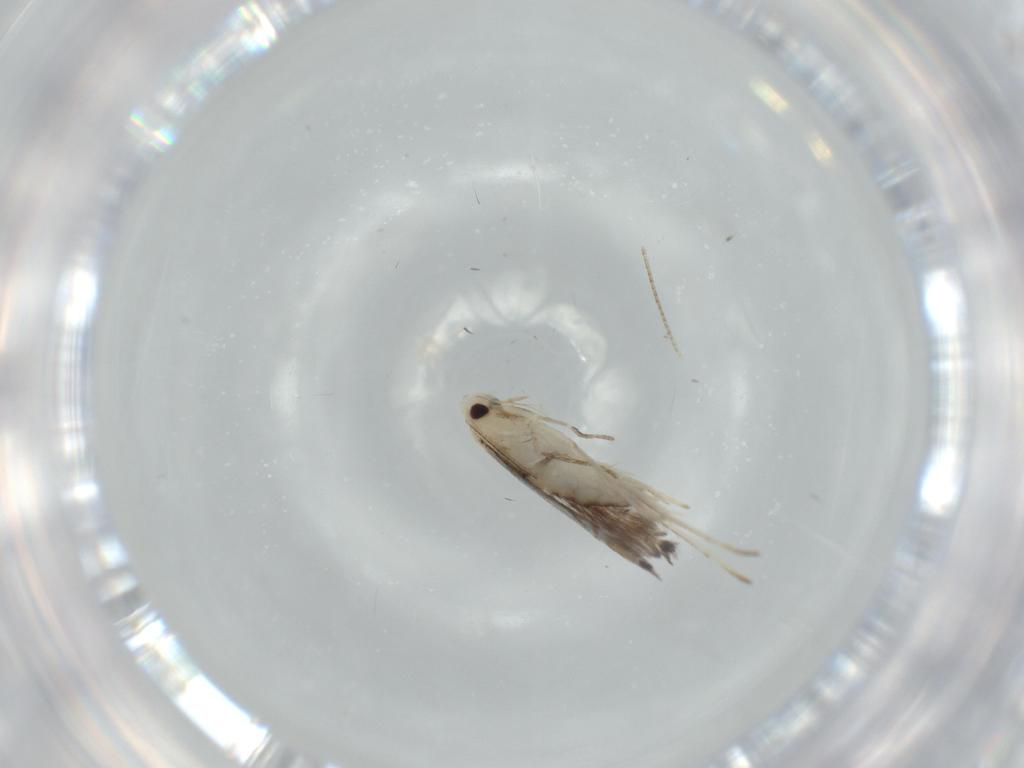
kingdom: Animalia
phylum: Arthropoda
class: Insecta
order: Lepidoptera
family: Gracillariidae
